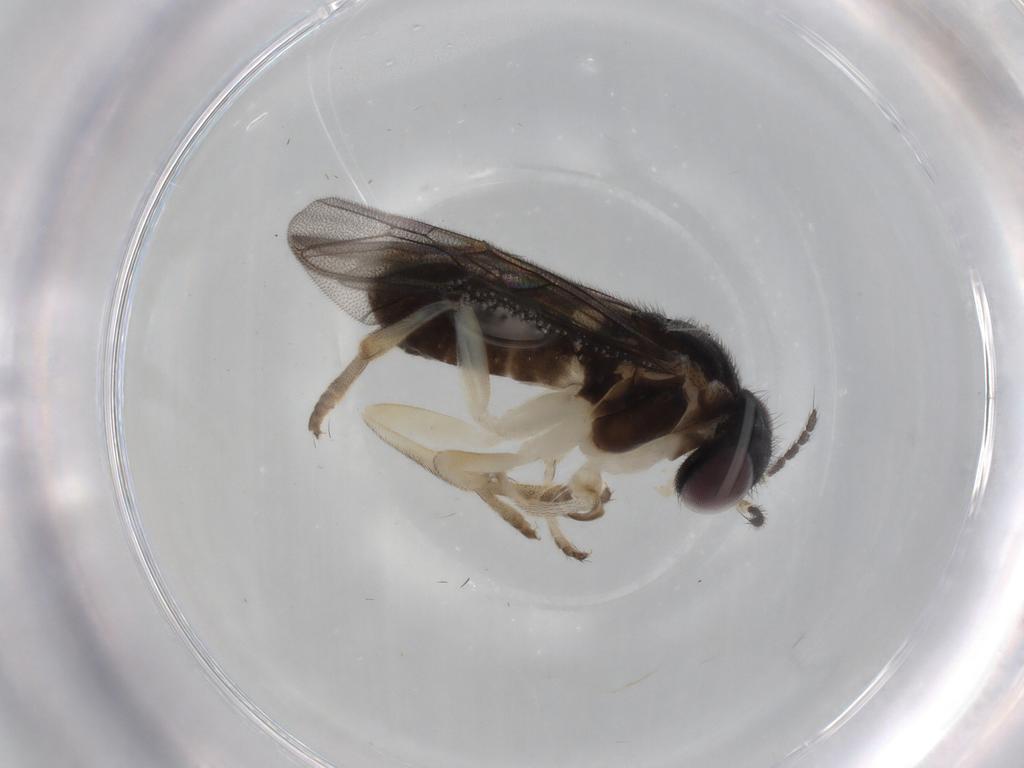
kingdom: Animalia
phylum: Arthropoda
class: Insecta
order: Hymenoptera
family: Pergidae
